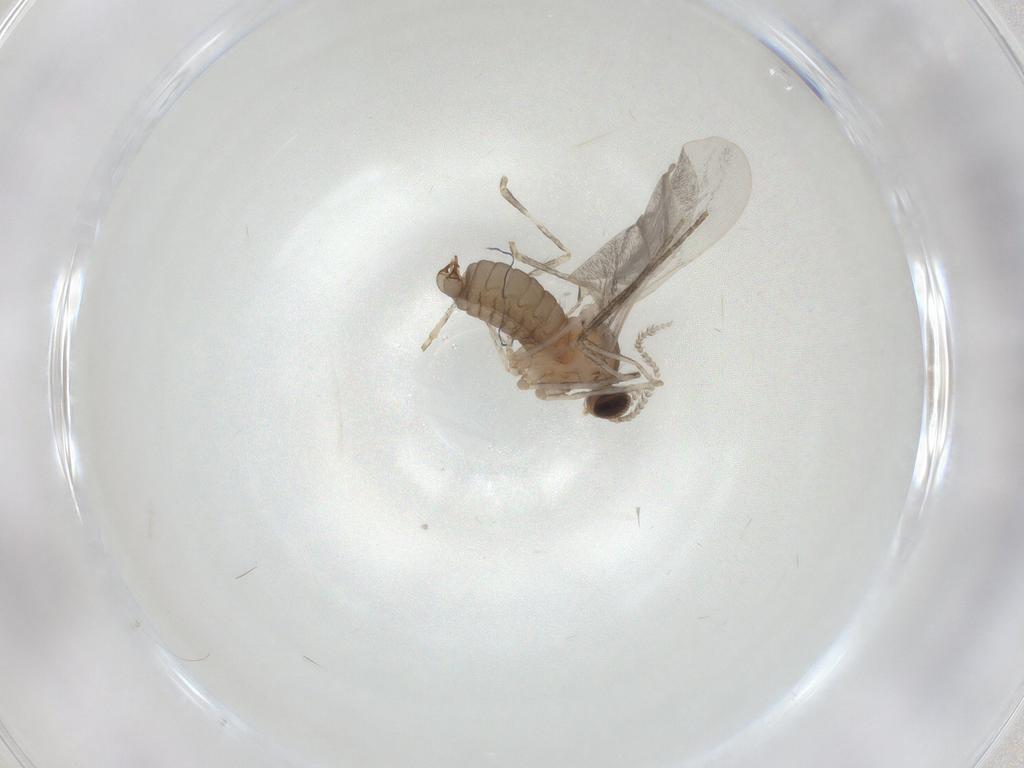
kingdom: Animalia
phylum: Arthropoda
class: Insecta
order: Diptera
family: Cecidomyiidae
